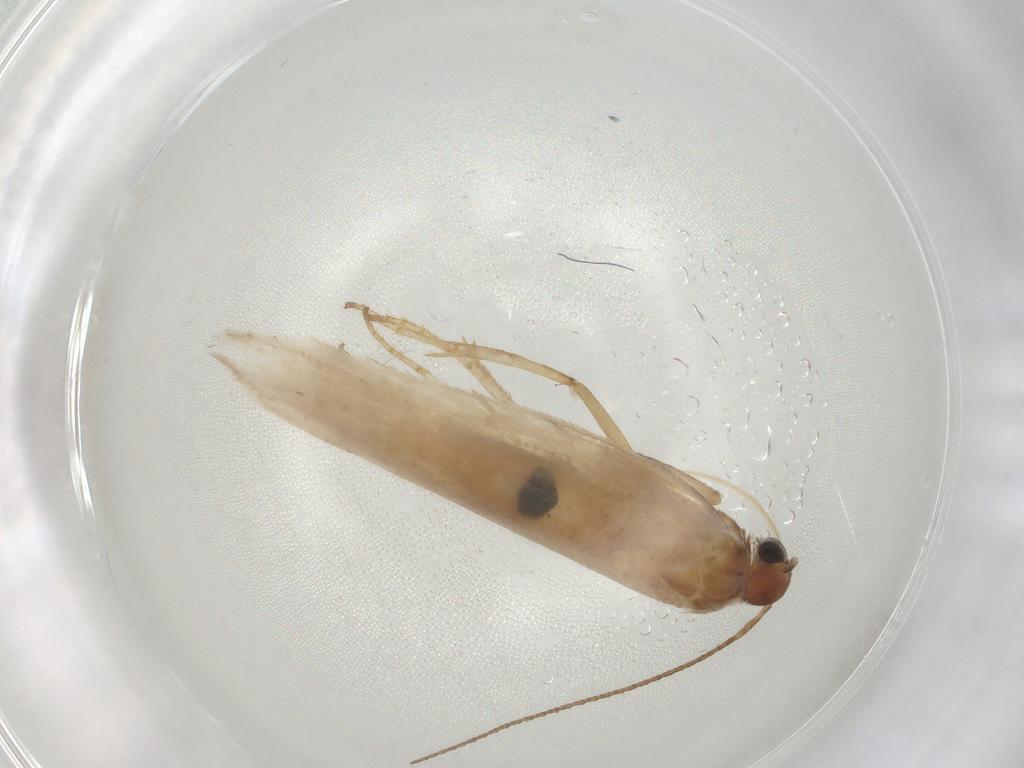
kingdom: Animalia
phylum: Arthropoda
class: Insecta
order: Lepidoptera
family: Gelechiidae
